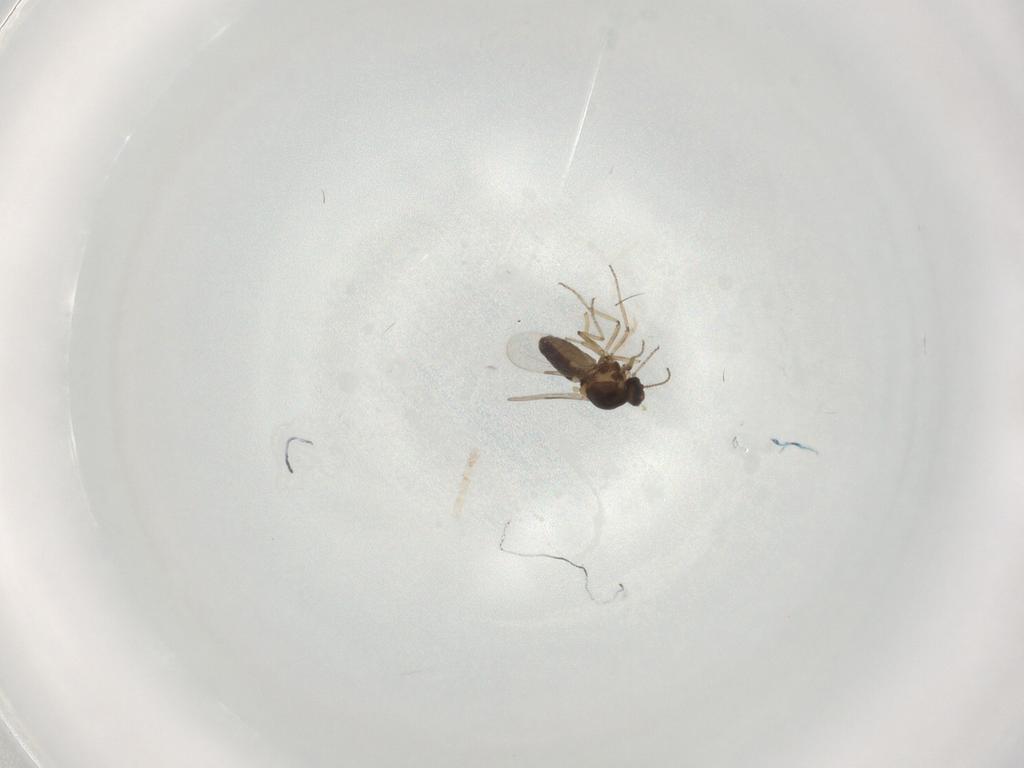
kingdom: Animalia
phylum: Arthropoda
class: Insecta
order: Diptera
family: Ceratopogonidae
